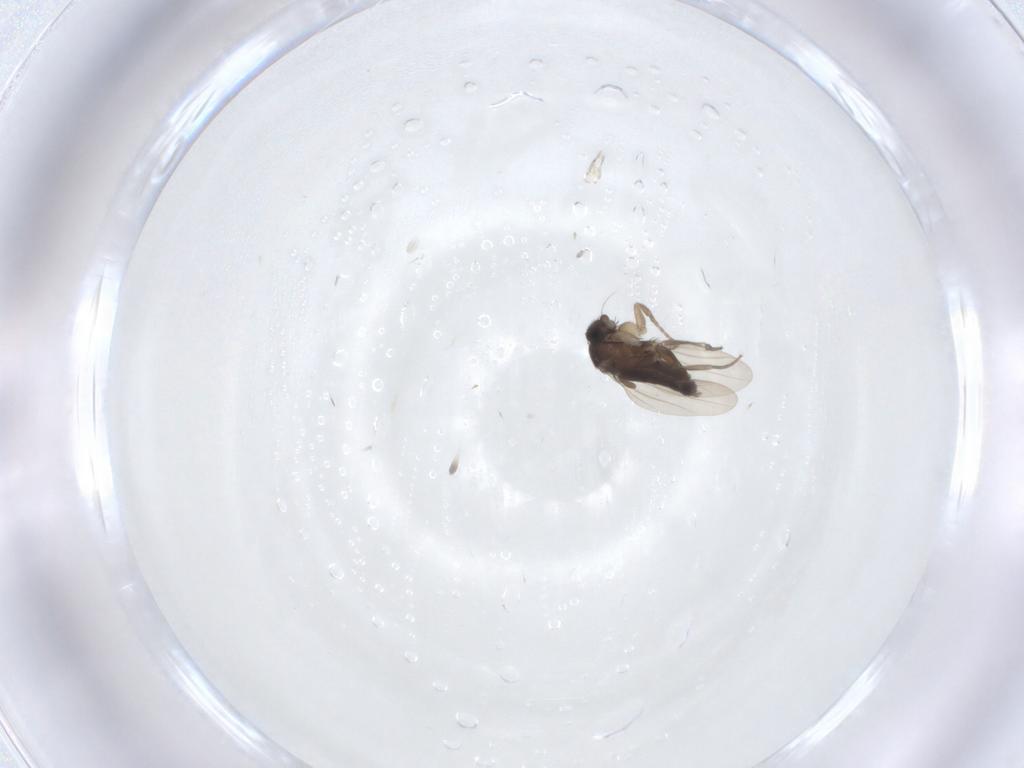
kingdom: Animalia
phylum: Arthropoda
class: Insecta
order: Diptera
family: Phoridae
